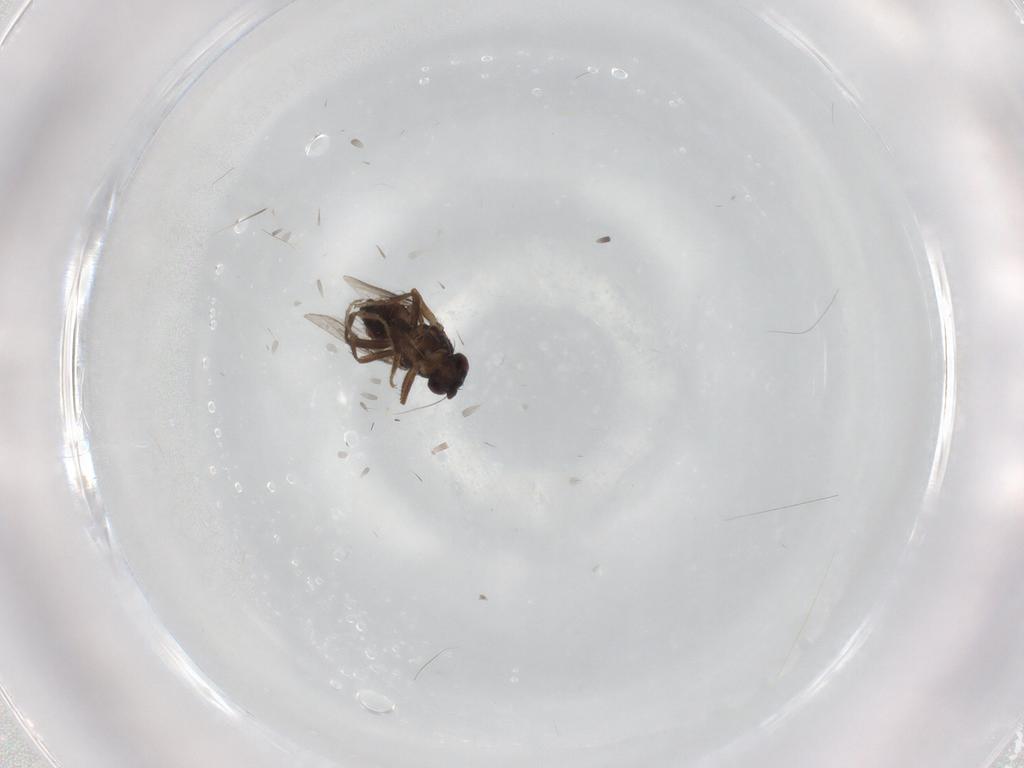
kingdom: Animalia
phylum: Arthropoda
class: Insecta
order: Diptera
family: Sphaeroceridae
